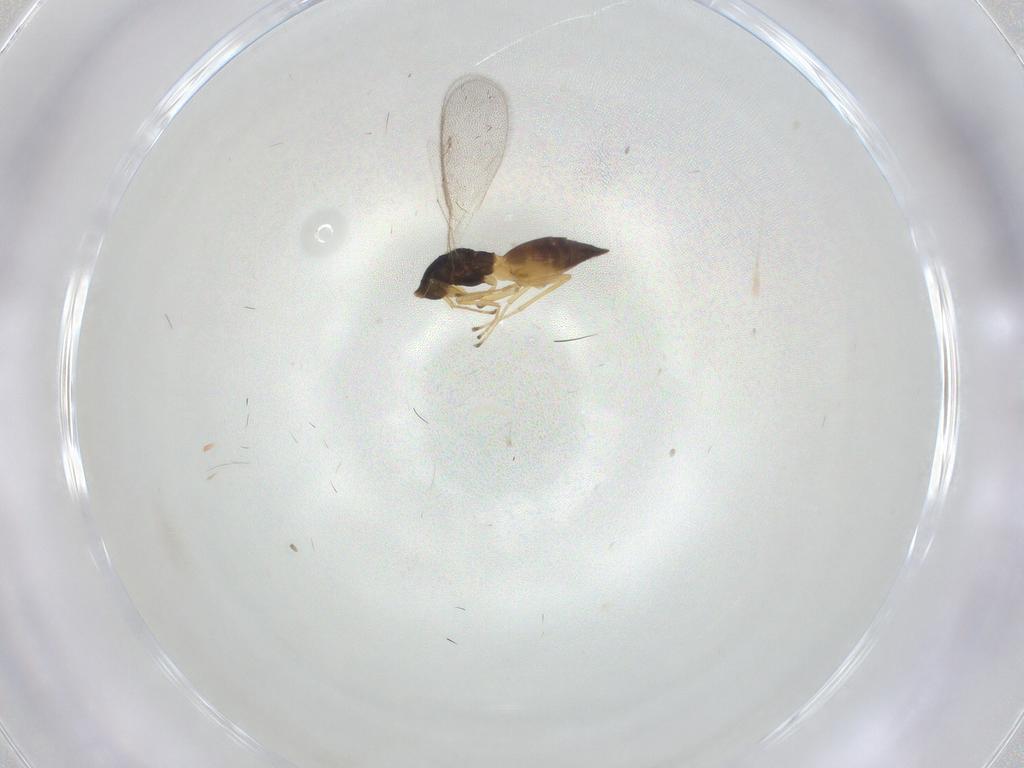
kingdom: Animalia
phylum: Arthropoda
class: Insecta
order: Hymenoptera
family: Pteromalidae
